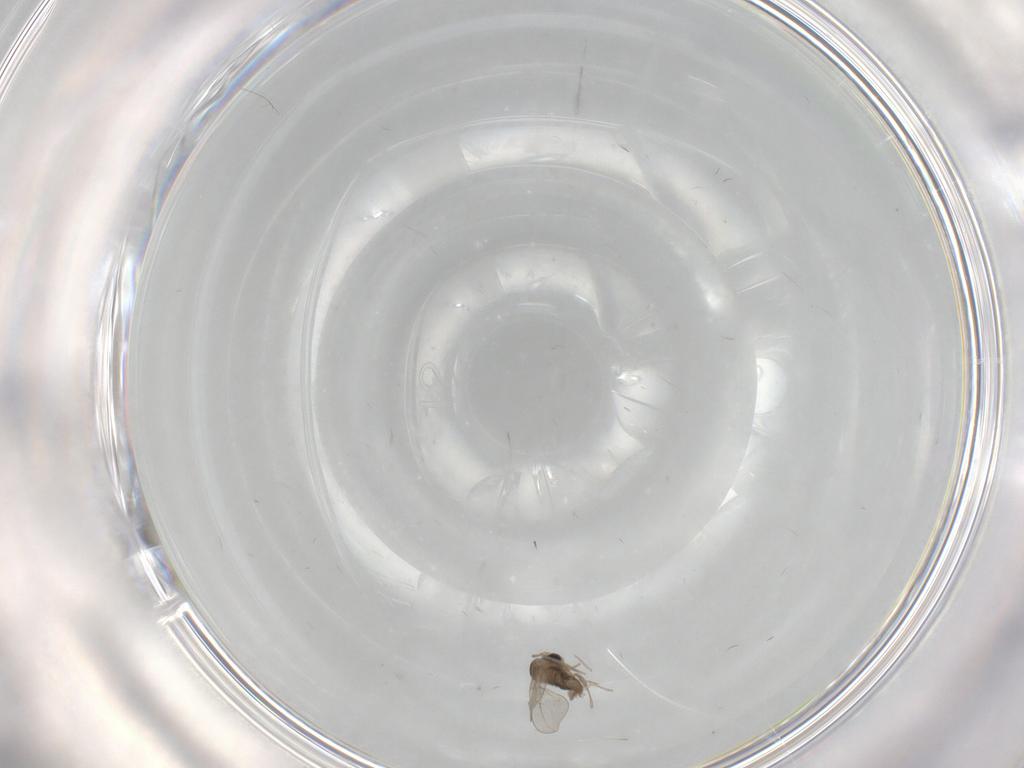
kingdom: Animalia
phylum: Arthropoda
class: Insecta
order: Diptera
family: Cecidomyiidae
